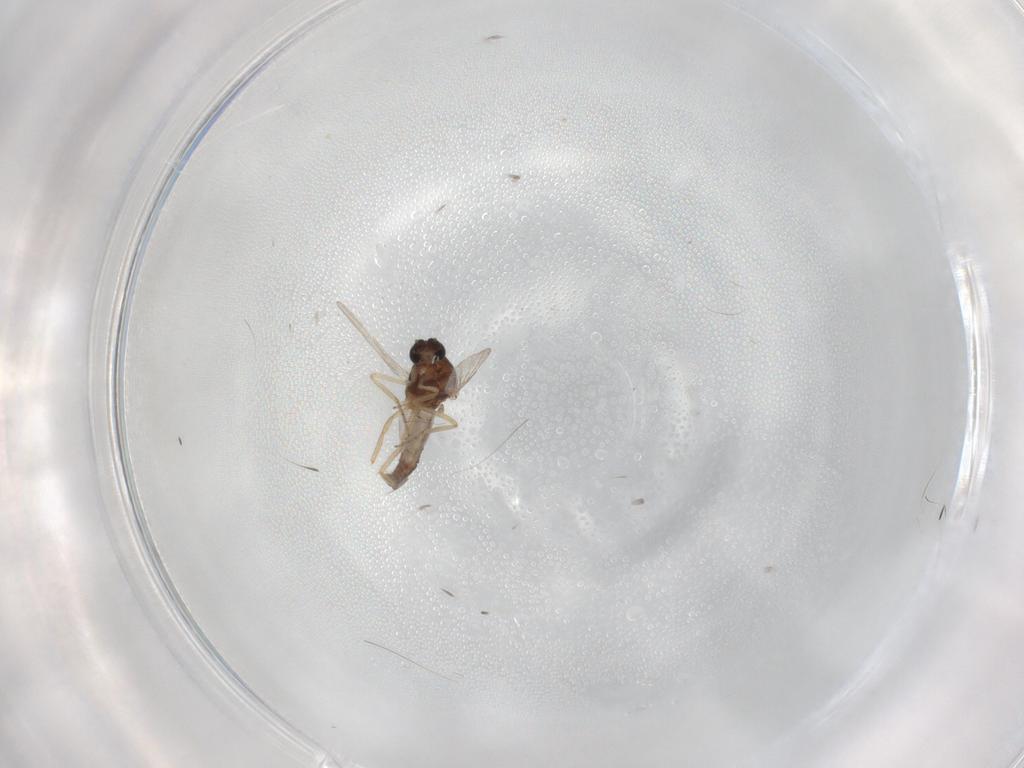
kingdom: Animalia
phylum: Arthropoda
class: Insecta
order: Diptera
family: Ceratopogonidae
